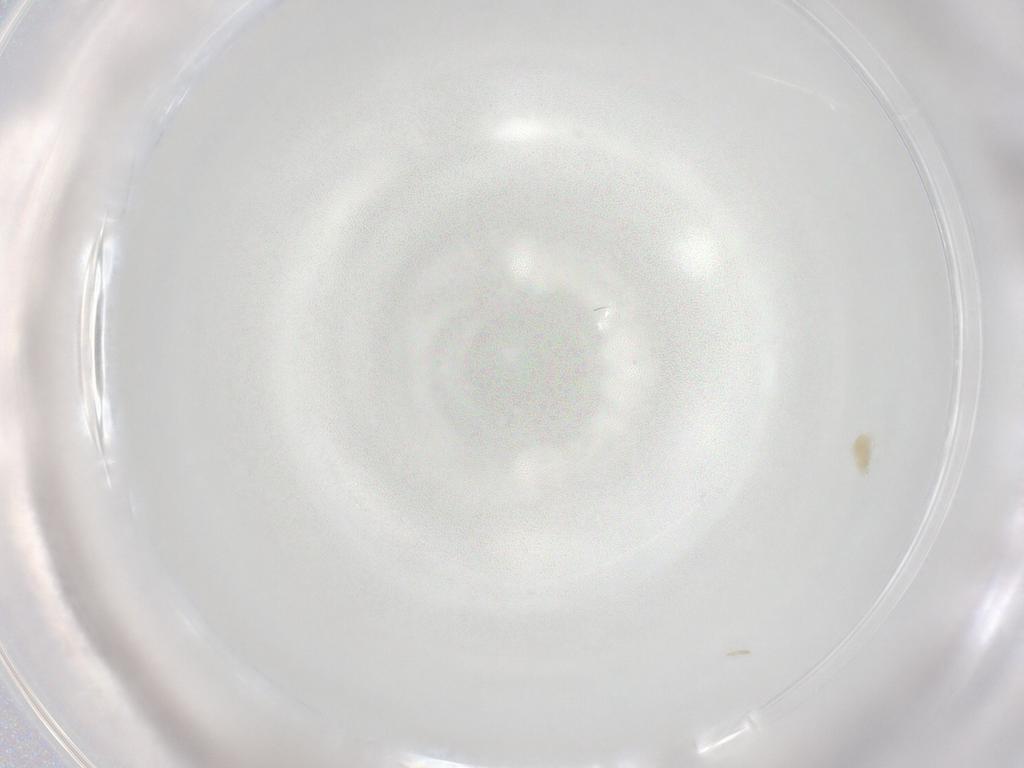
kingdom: Animalia
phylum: Arthropoda
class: Arachnida
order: Trombidiformes
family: Eupodidae
